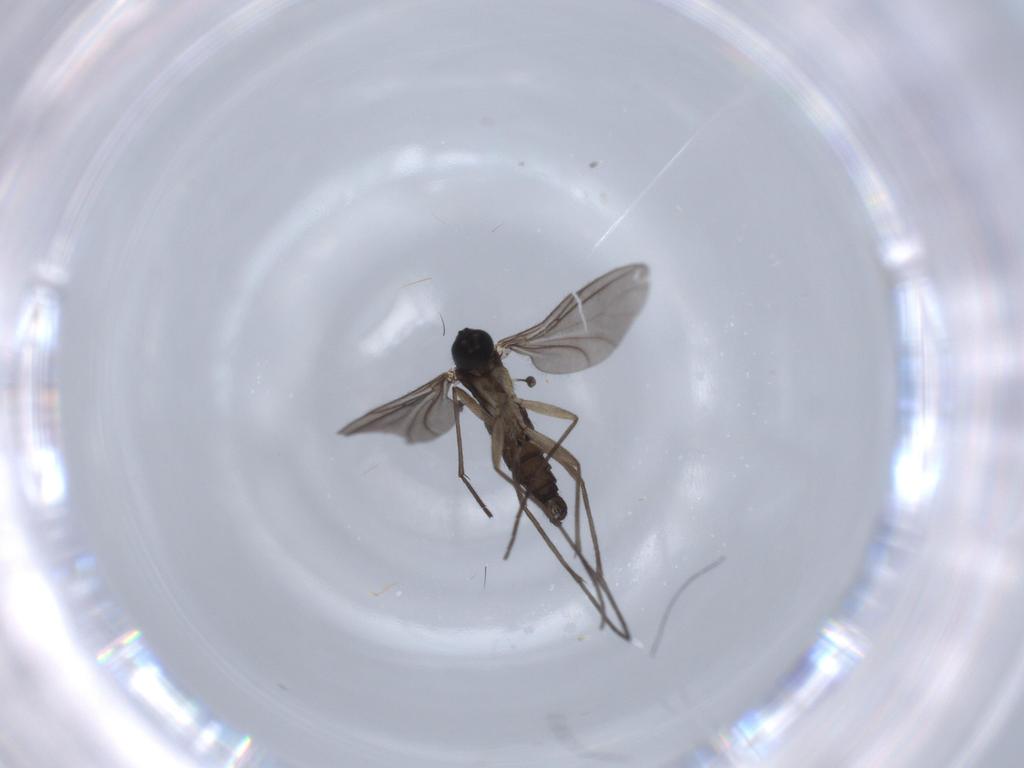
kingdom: Animalia
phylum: Arthropoda
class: Insecta
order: Diptera
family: Sciaridae
